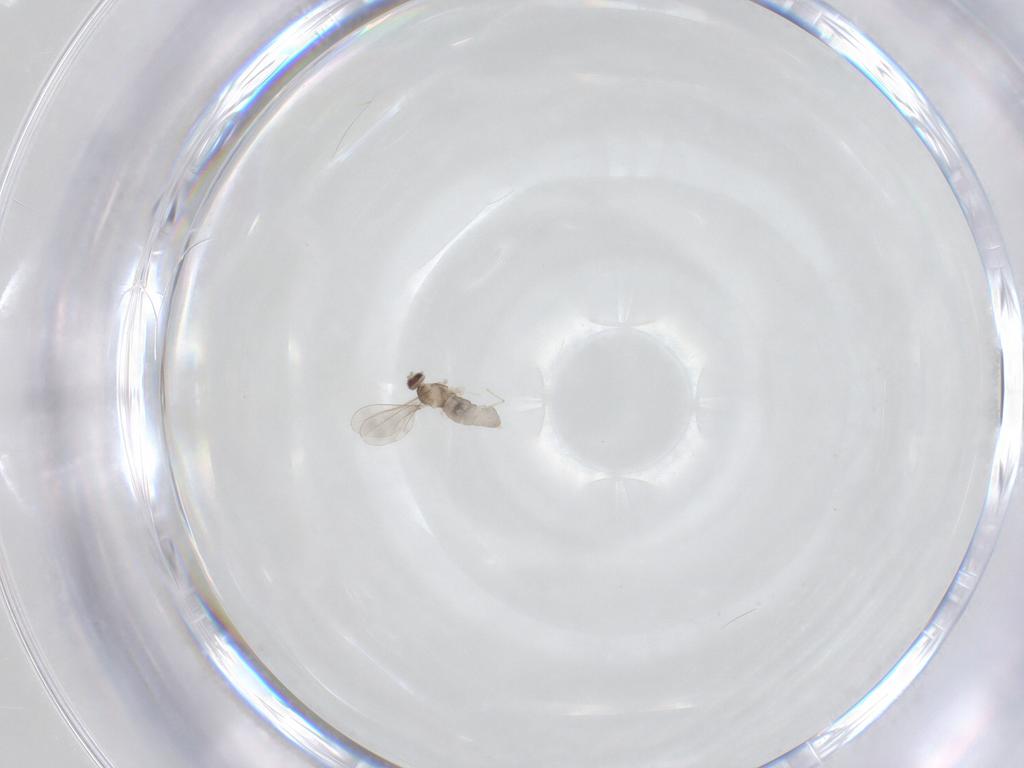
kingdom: Animalia
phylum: Arthropoda
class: Insecta
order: Diptera
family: Cecidomyiidae
